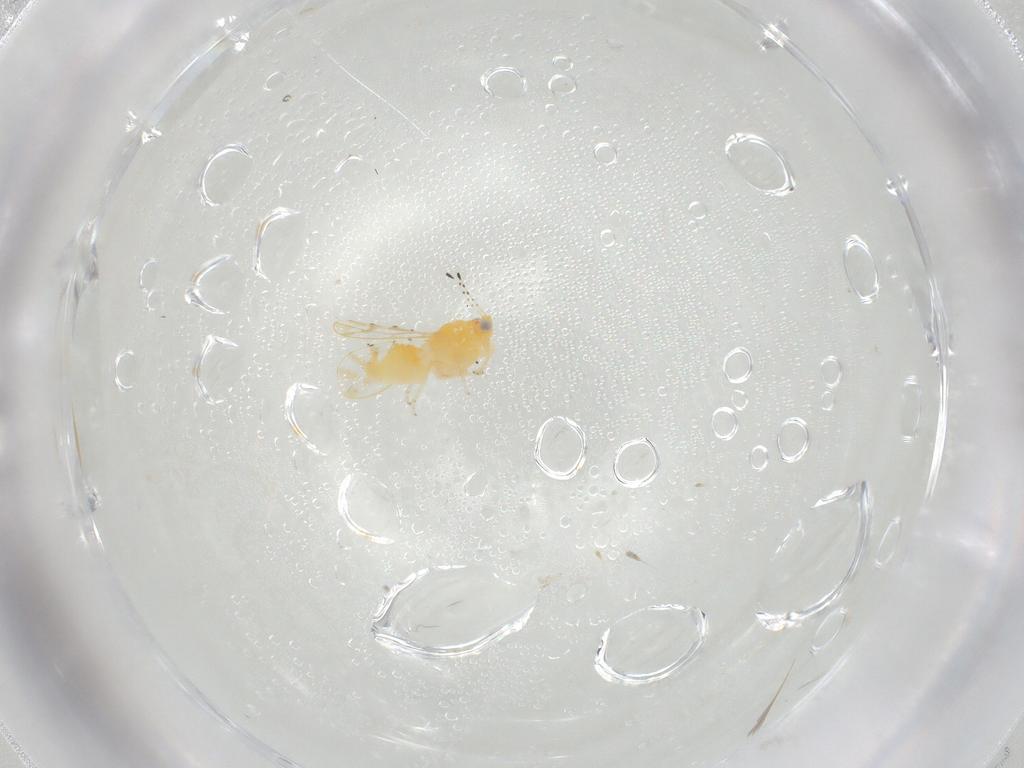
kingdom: Animalia
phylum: Arthropoda
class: Insecta
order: Hemiptera
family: Aphalaridae
